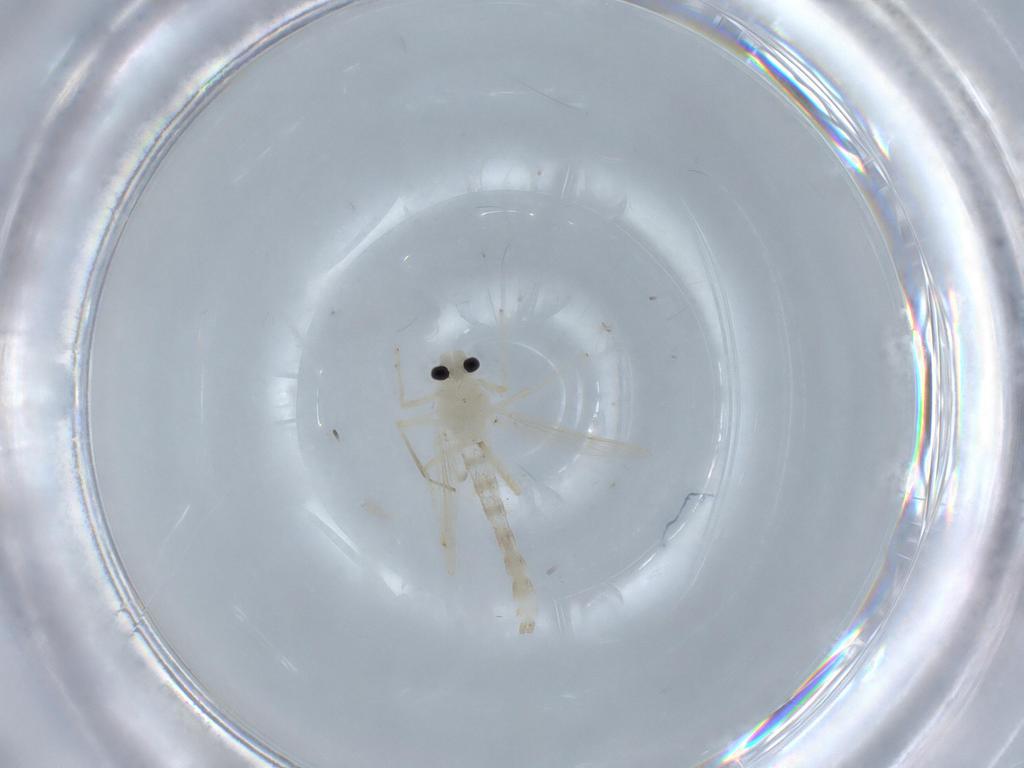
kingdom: Animalia
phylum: Arthropoda
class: Insecta
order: Diptera
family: Chironomidae
